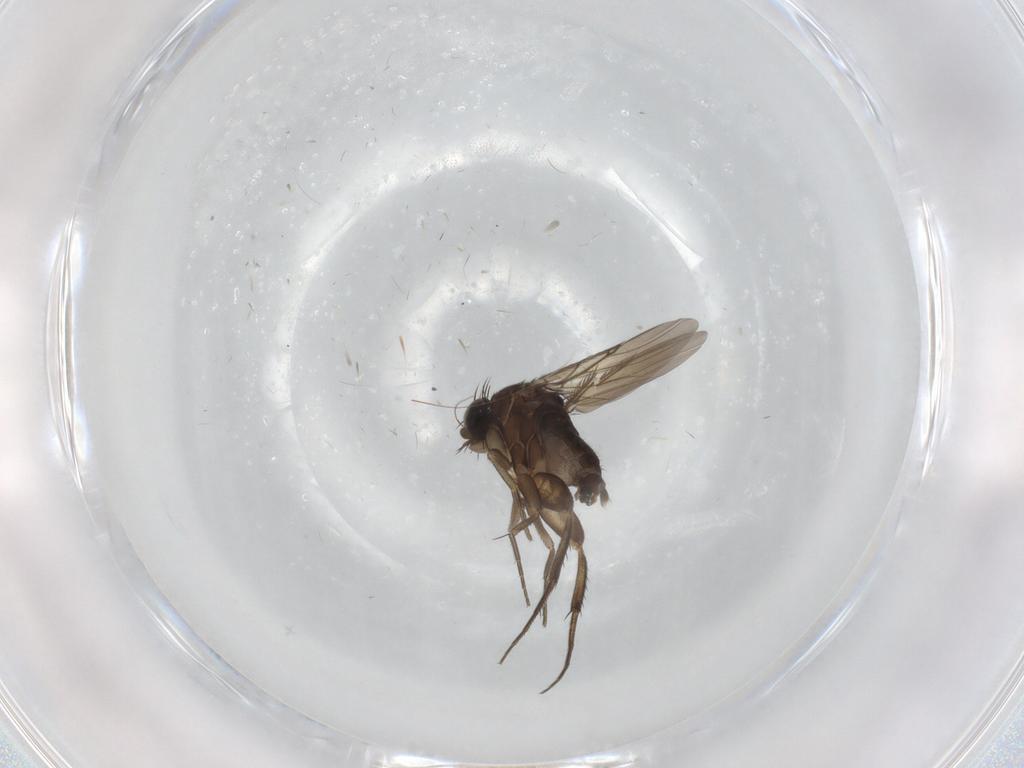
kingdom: Animalia
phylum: Arthropoda
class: Insecta
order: Diptera
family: Phoridae
